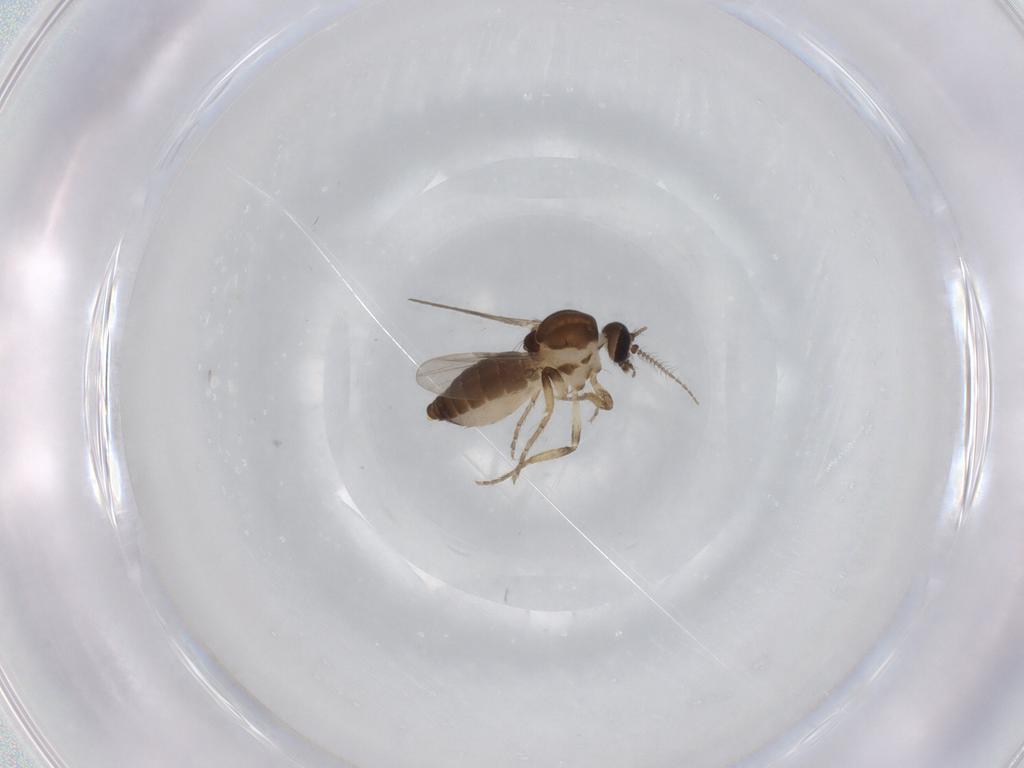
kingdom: Animalia
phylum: Arthropoda
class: Insecta
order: Diptera
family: Ceratopogonidae
